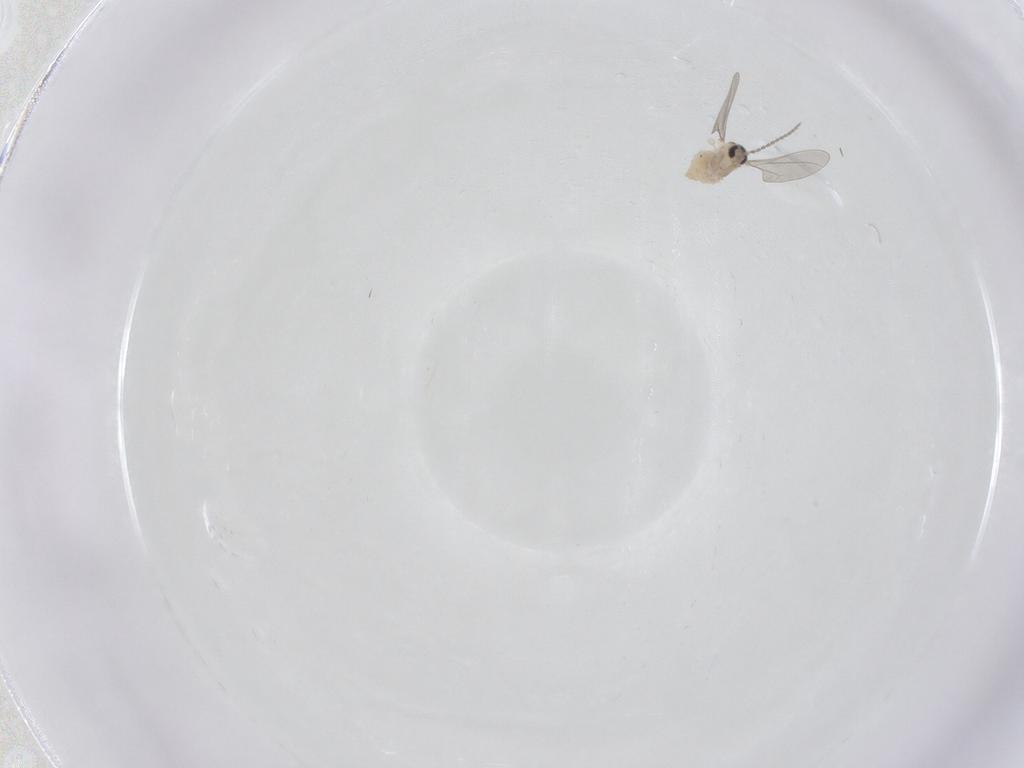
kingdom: Animalia
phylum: Arthropoda
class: Insecta
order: Diptera
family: Cecidomyiidae
